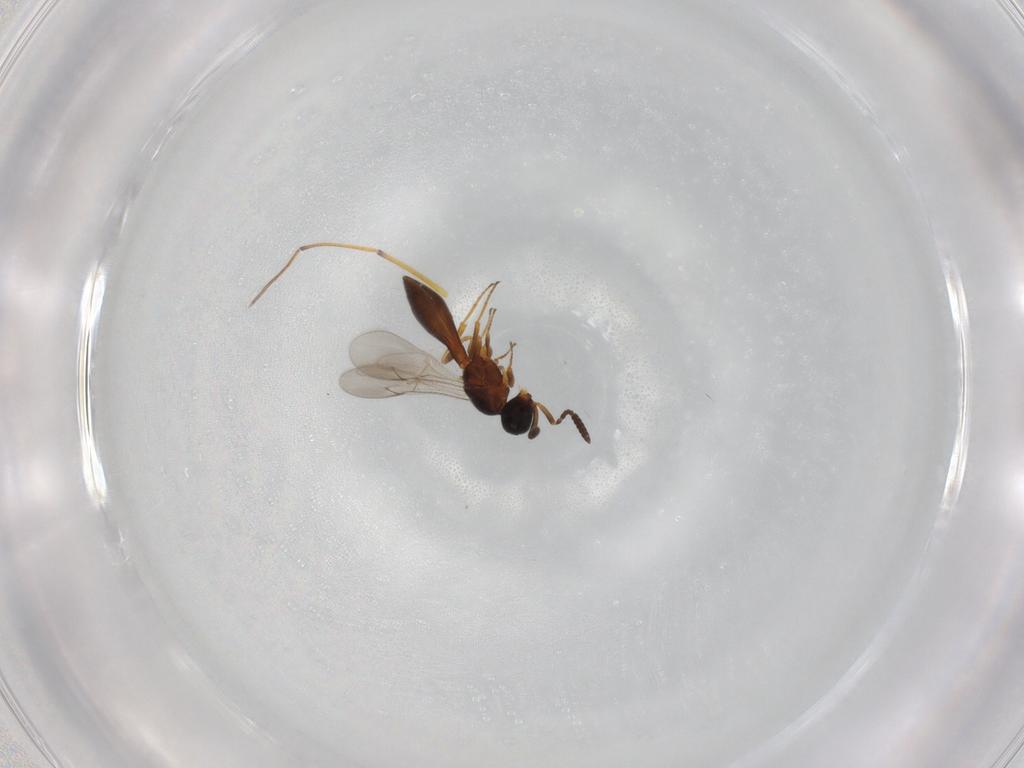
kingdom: Animalia
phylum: Arthropoda
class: Insecta
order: Hymenoptera
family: Scelionidae
